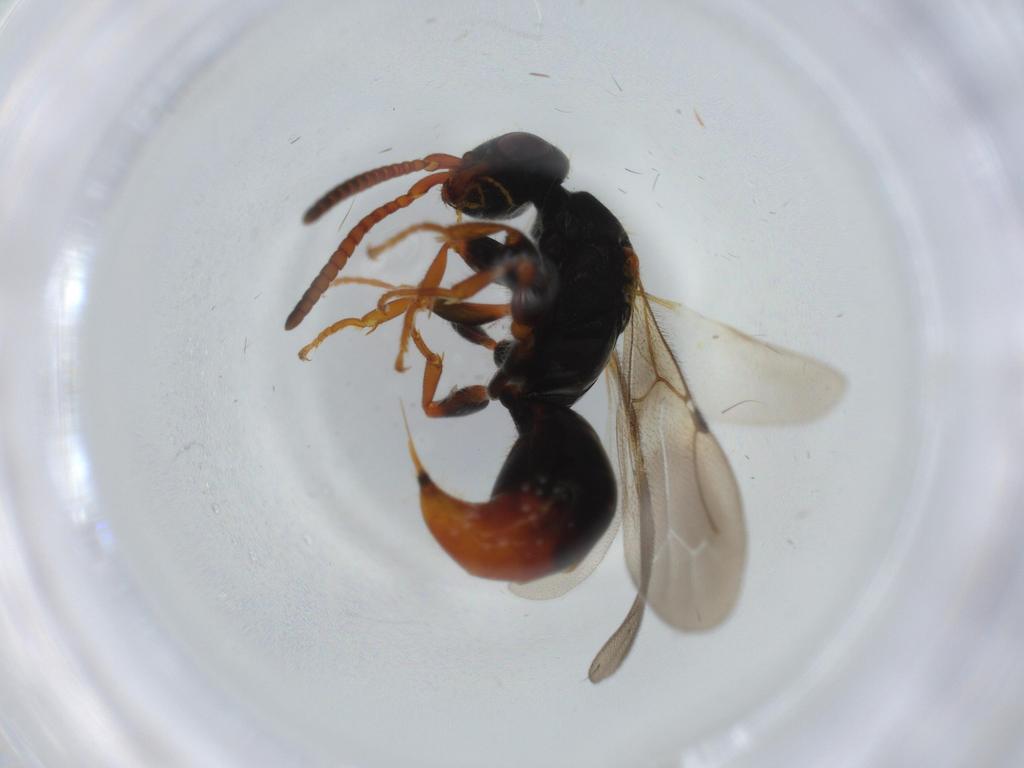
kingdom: Animalia
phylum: Arthropoda
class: Insecta
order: Hymenoptera
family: Bethylidae
